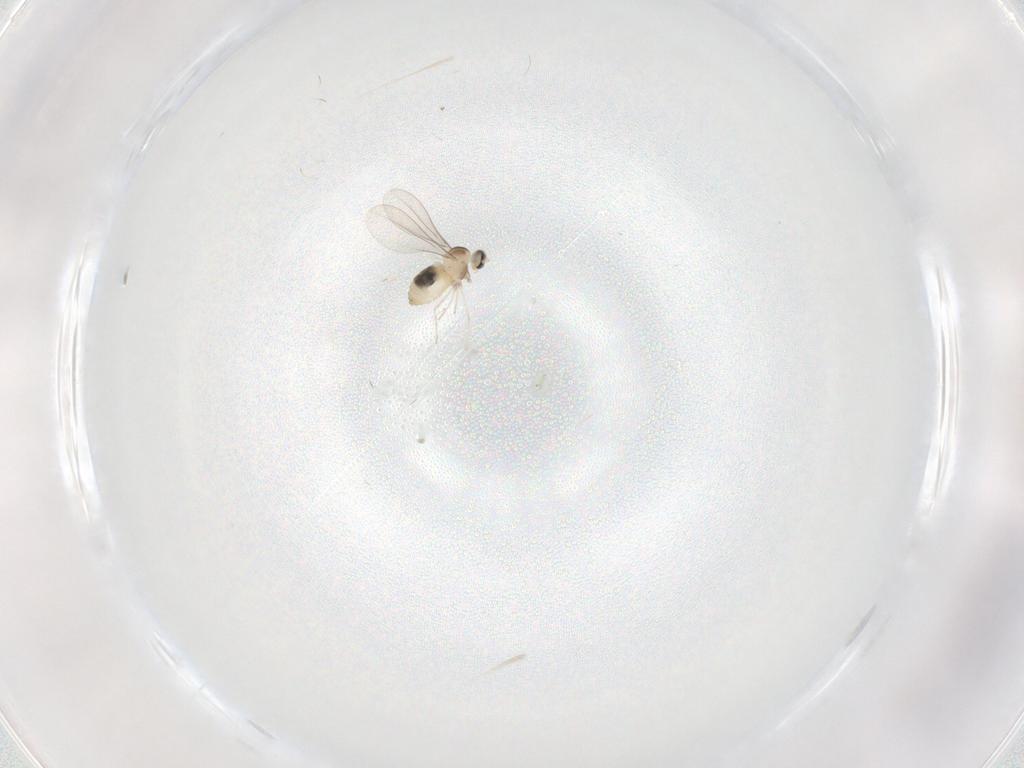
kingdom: Animalia
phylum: Arthropoda
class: Insecta
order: Diptera
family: Cecidomyiidae
